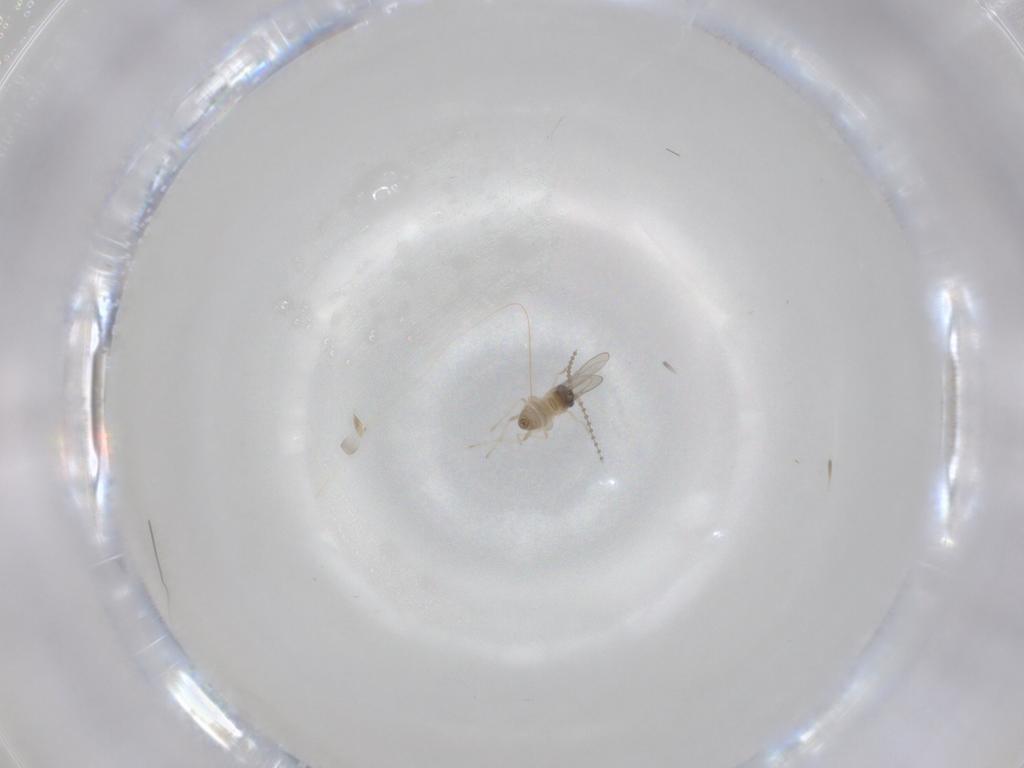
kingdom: Animalia
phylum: Arthropoda
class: Insecta
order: Diptera
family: Cecidomyiidae
